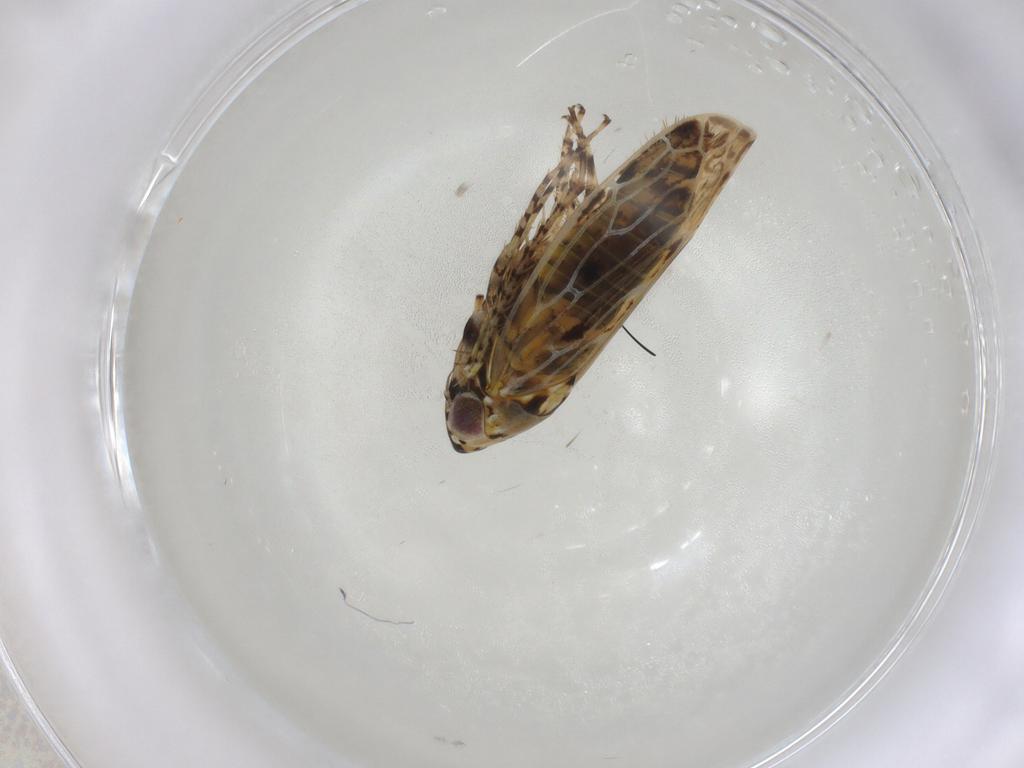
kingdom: Animalia
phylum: Arthropoda
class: Insecta
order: Hemiptera
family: Cicadellidae
